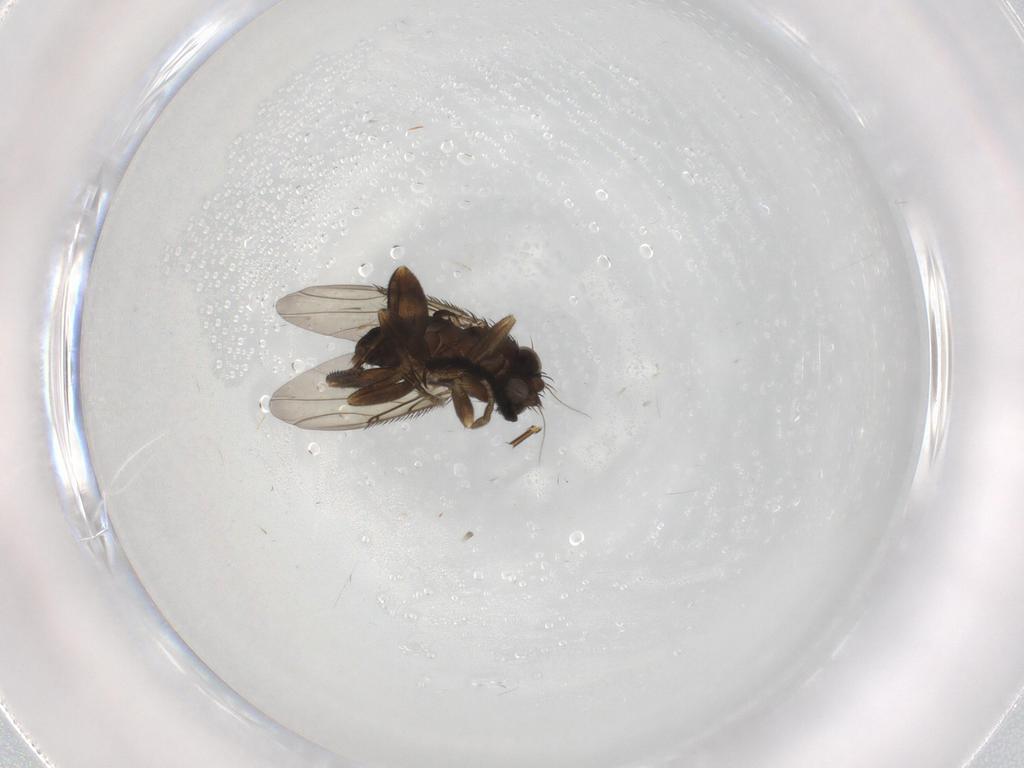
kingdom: Animalia
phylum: Arthropoda
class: Insecta
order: Diptera
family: Phoridae
